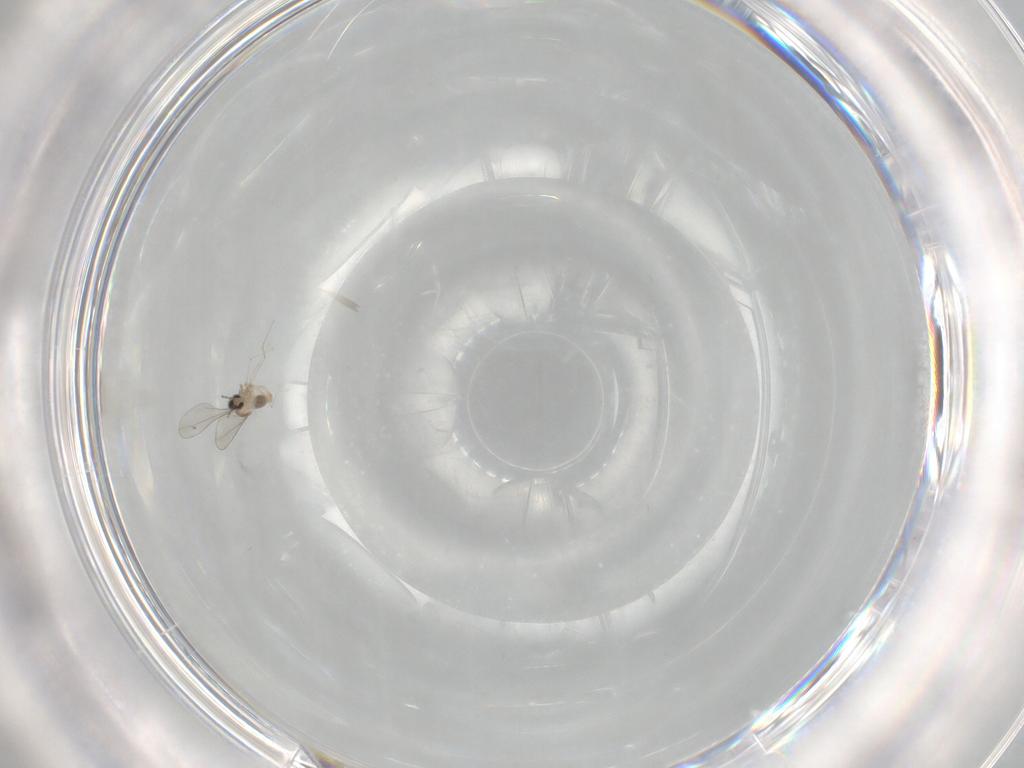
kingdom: Animalia
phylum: Arthropoda
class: Insecta
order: Diptera
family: Cecidomyiidae
